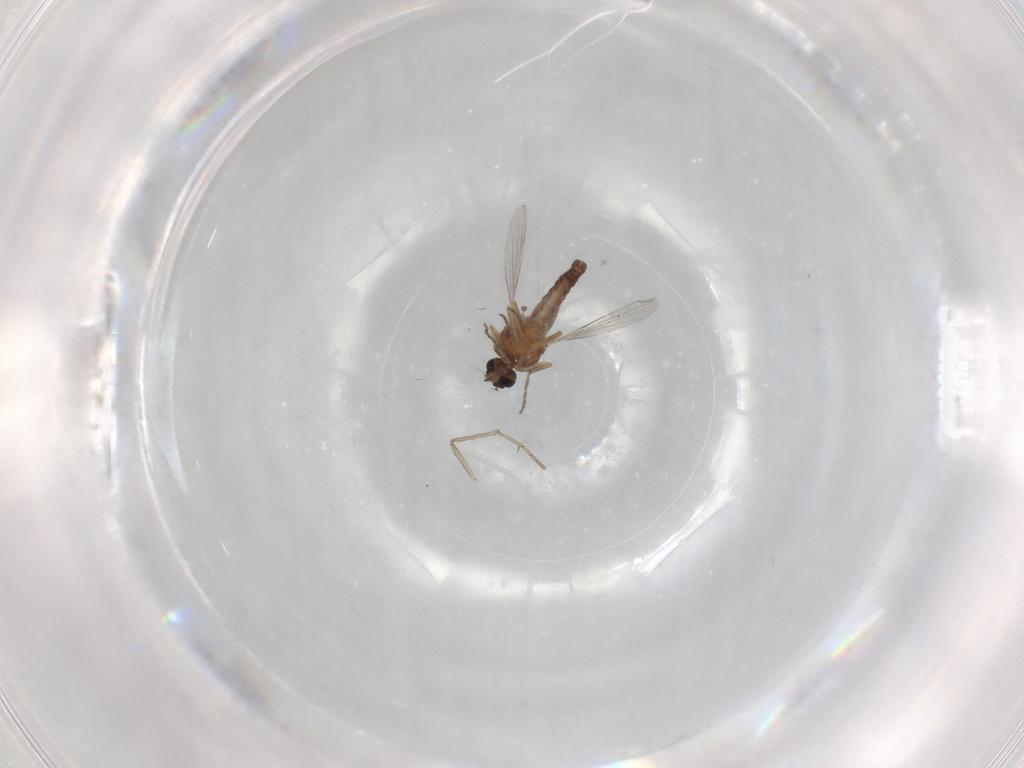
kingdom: Animalia
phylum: Arthropoda
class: Insecta
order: Diptera
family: Cecidomyiidae
